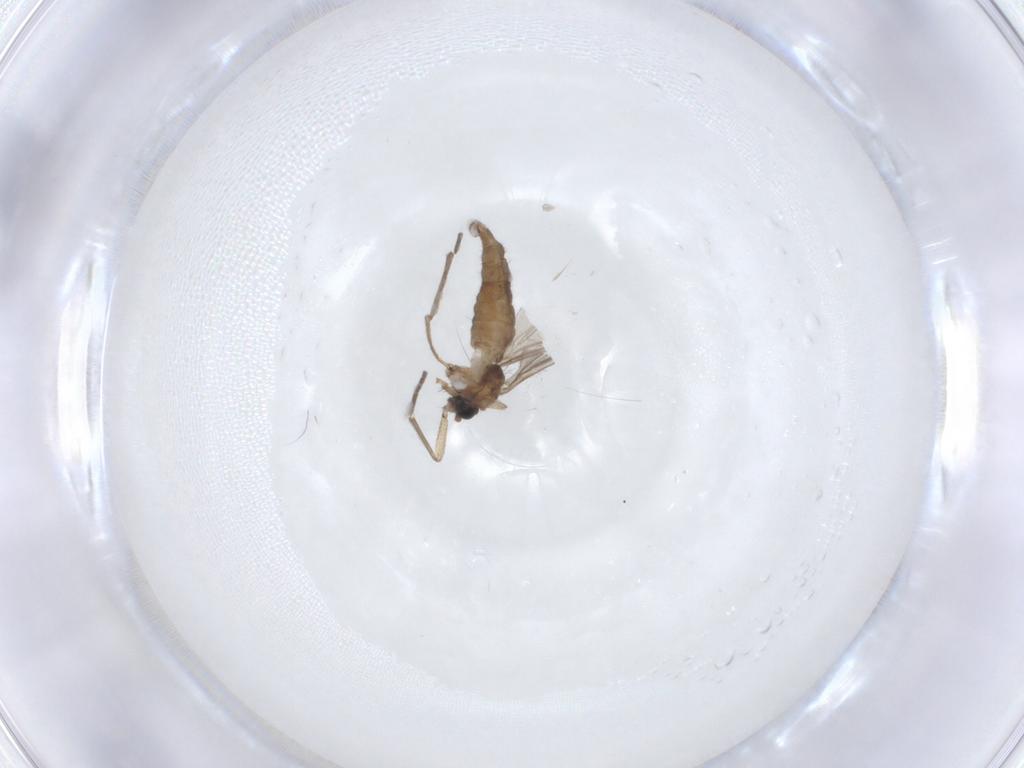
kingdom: Animalia
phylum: Arthropoda
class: Insecta
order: Diptera
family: Sciaridae
